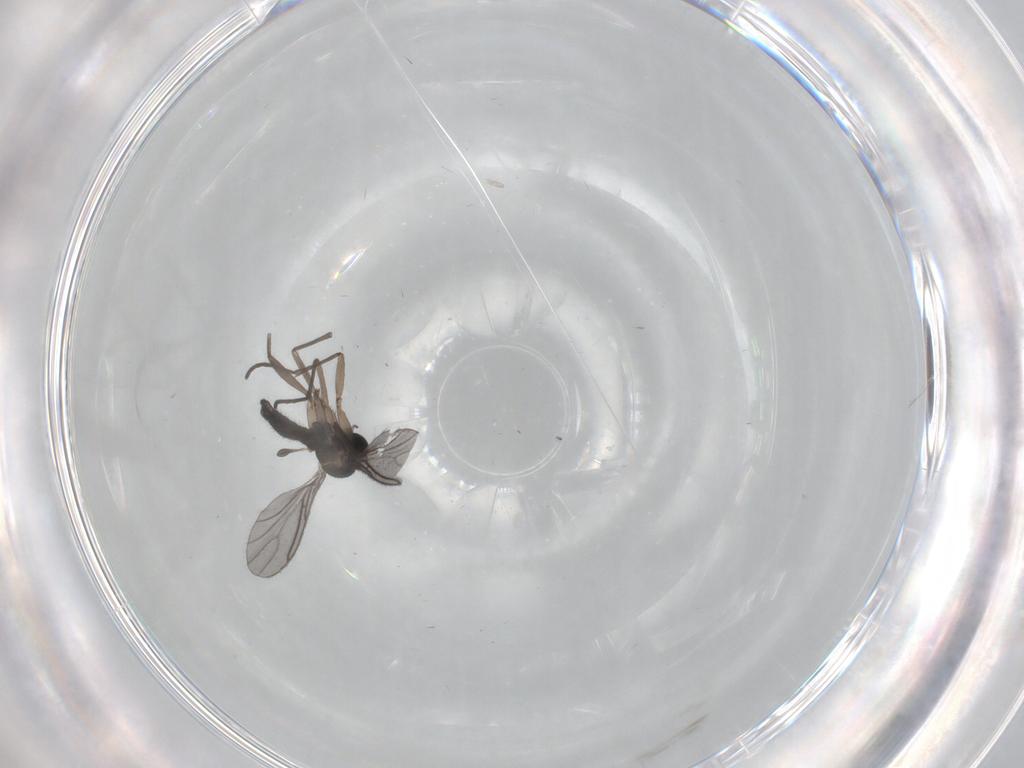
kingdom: Animalia
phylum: Arthropoda
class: Insecta
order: Diptera
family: Sciaridae
